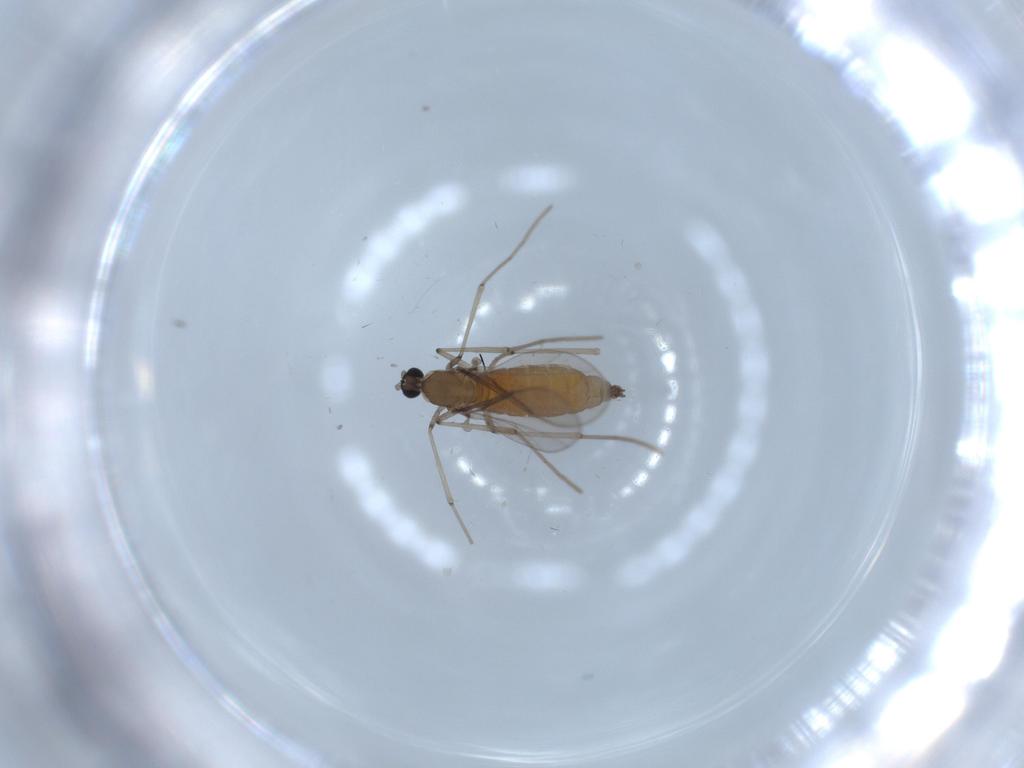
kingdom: Animalia
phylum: Arthropoda
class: Insecta
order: Diptera
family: Cecidomyiidae
